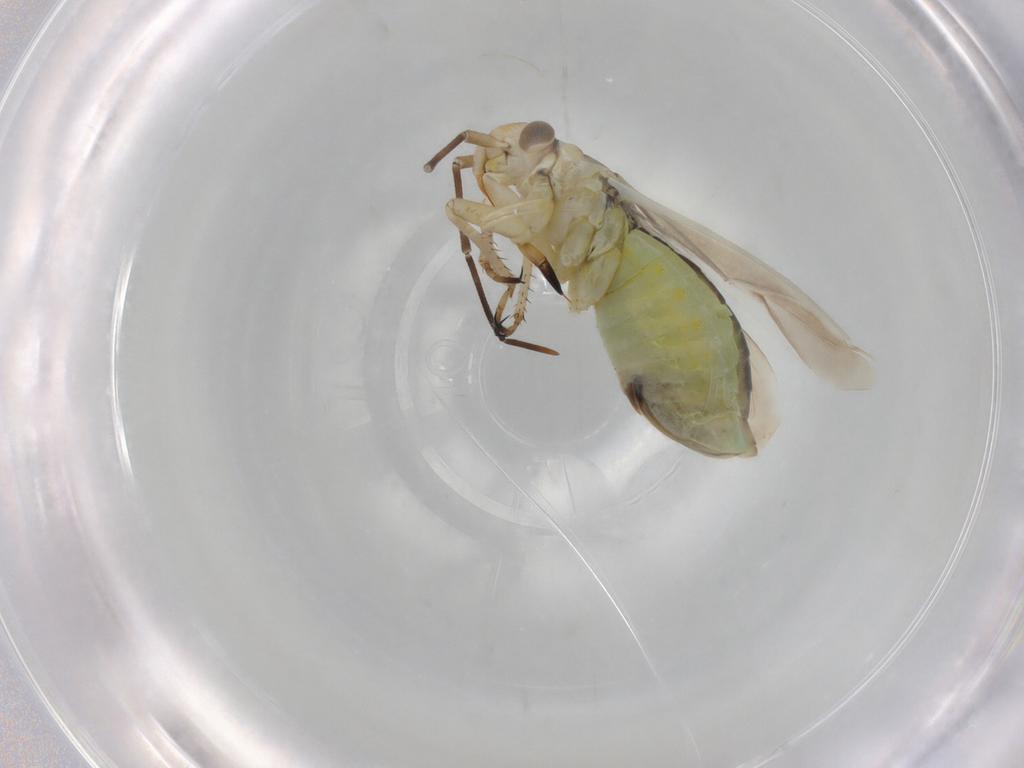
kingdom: Animalia
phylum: Arthropoda
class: Insecta
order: Hemiptera
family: Miridae
